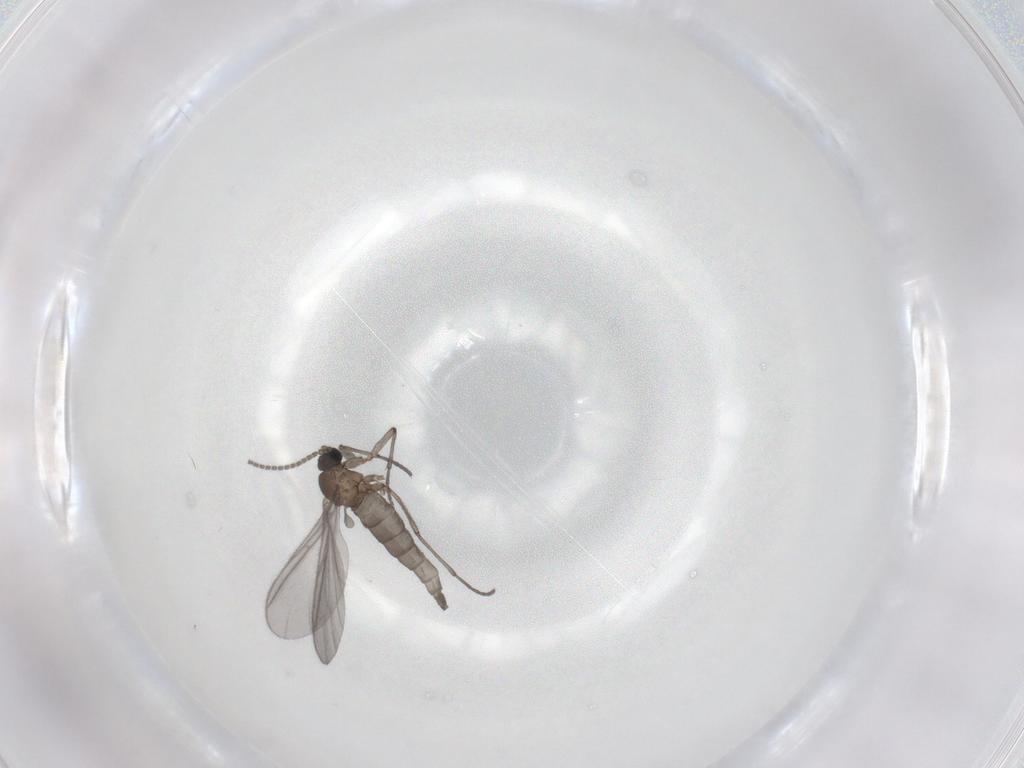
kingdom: Animalia
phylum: Arthropoda
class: Insecta
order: Diptera
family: Sciaridae
